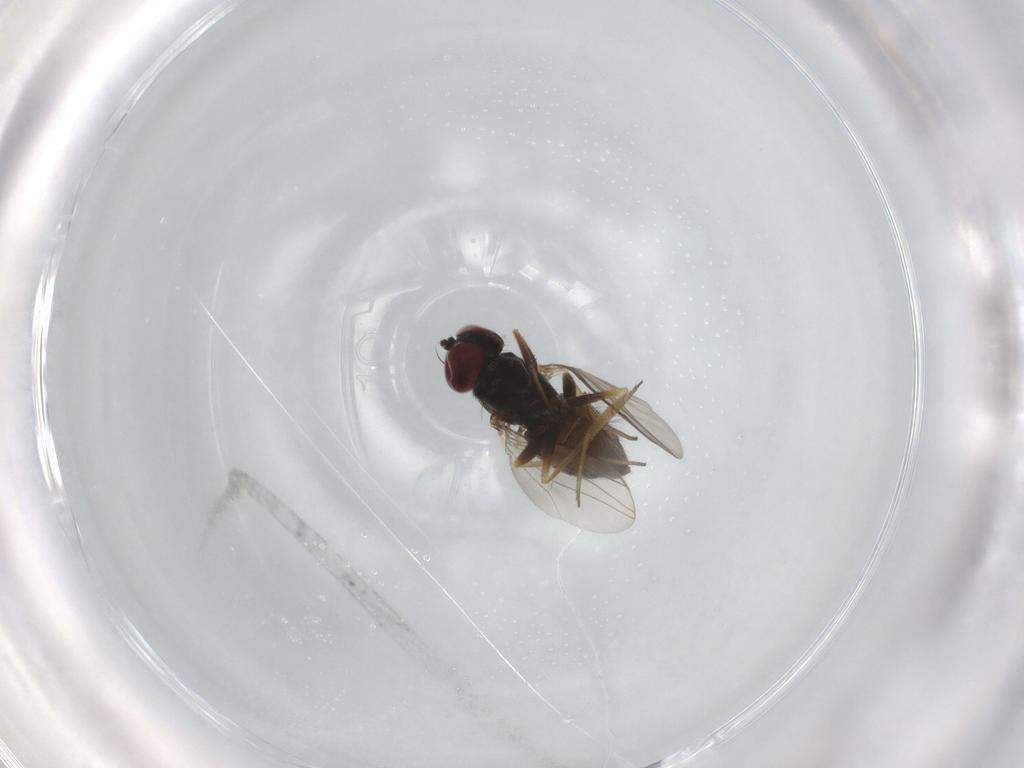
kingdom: Animalia
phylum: Arthropoda
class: Insecta
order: Diptera
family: Dolichopodidae
